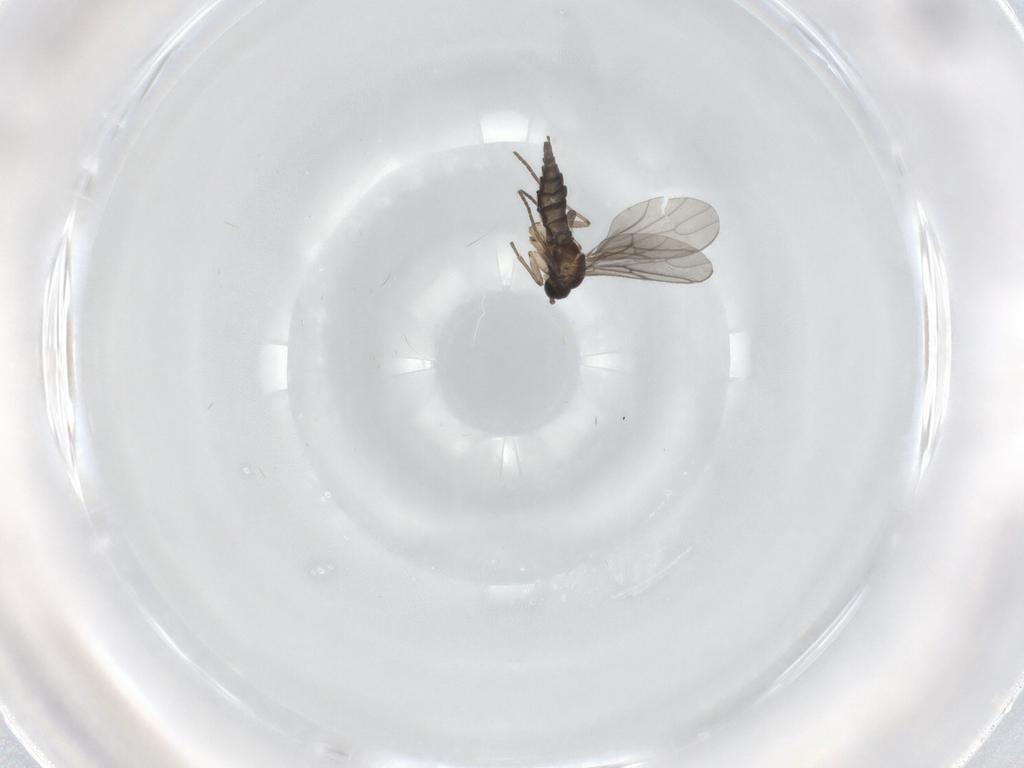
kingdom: Animalia
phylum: Arthropoda
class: Insecta
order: Diptera
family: Sciaridae
